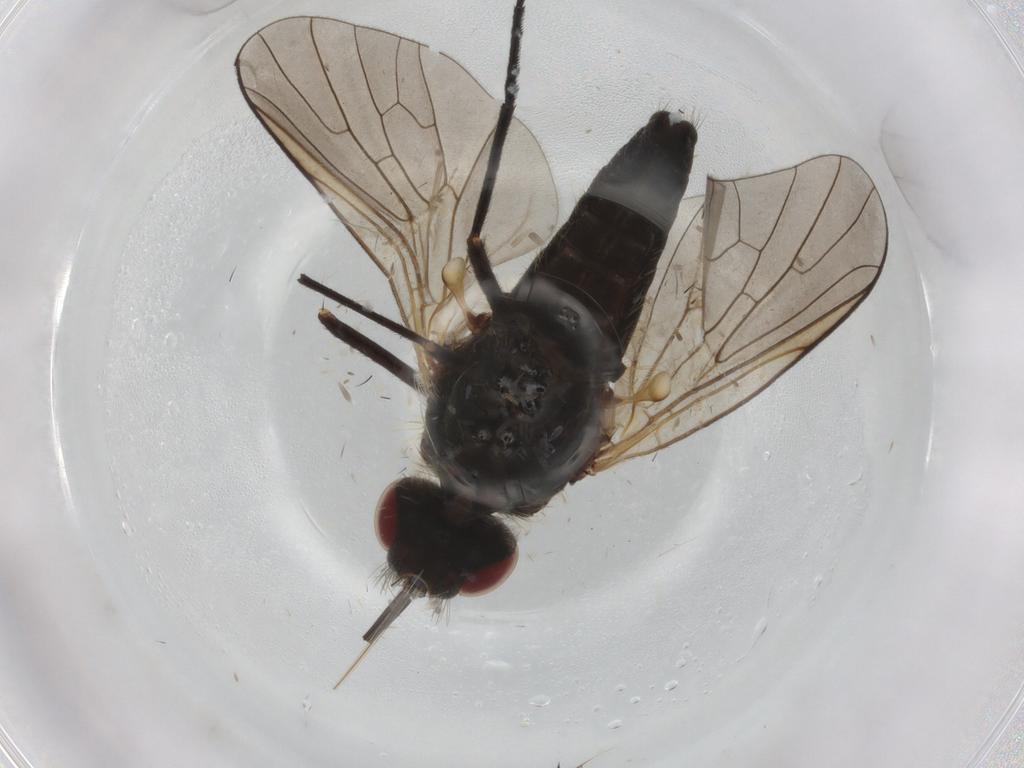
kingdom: Animalia
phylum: Arthropoda
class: Insecta
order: Diptera
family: Bombyliidae
